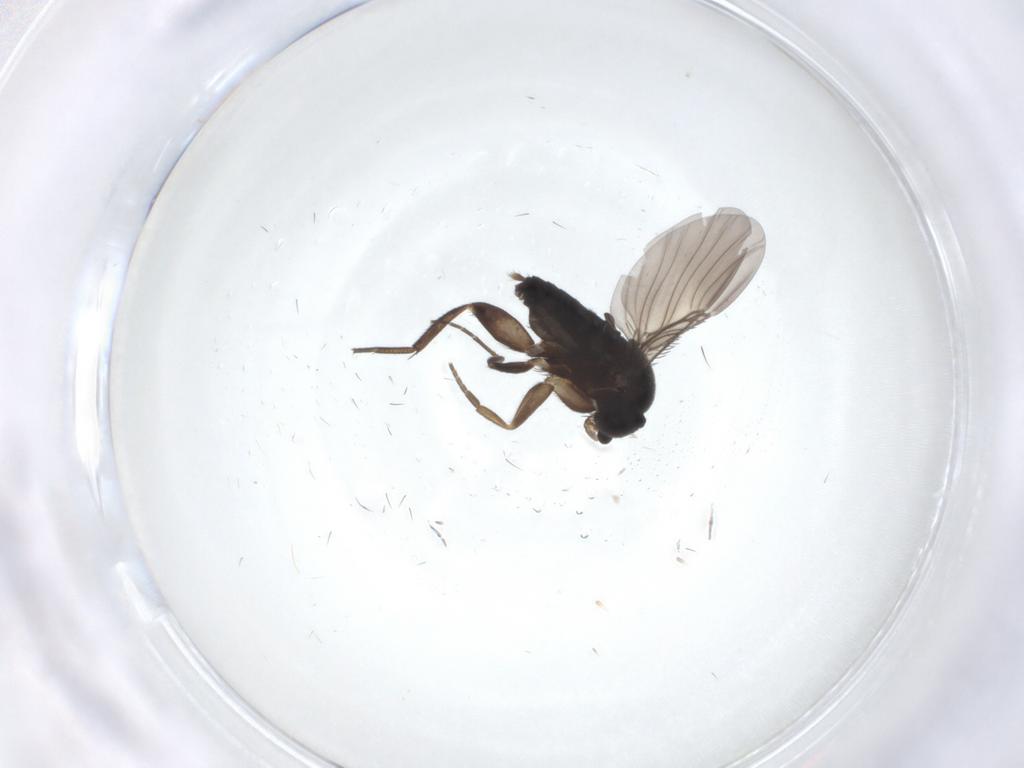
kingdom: Animalia
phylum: Arthropoda
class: Insecta
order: Diptera
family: Phoridae
